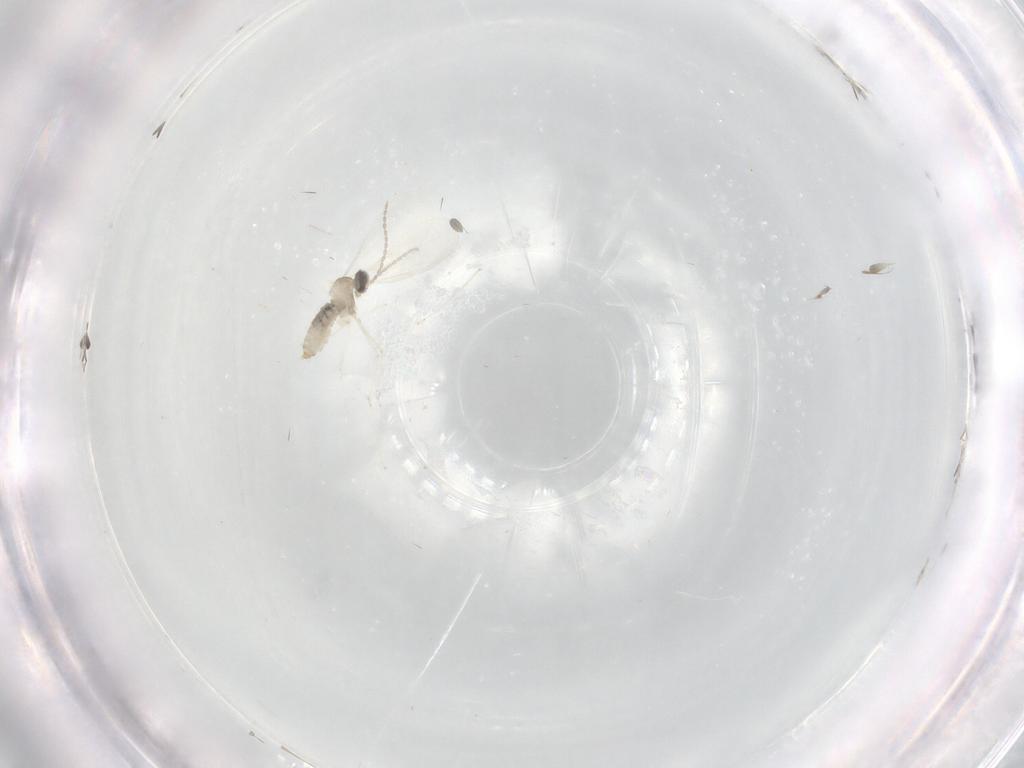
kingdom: Animalia
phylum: Arthropoda
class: Insecta
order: Diptera
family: Cecidomyiidae
